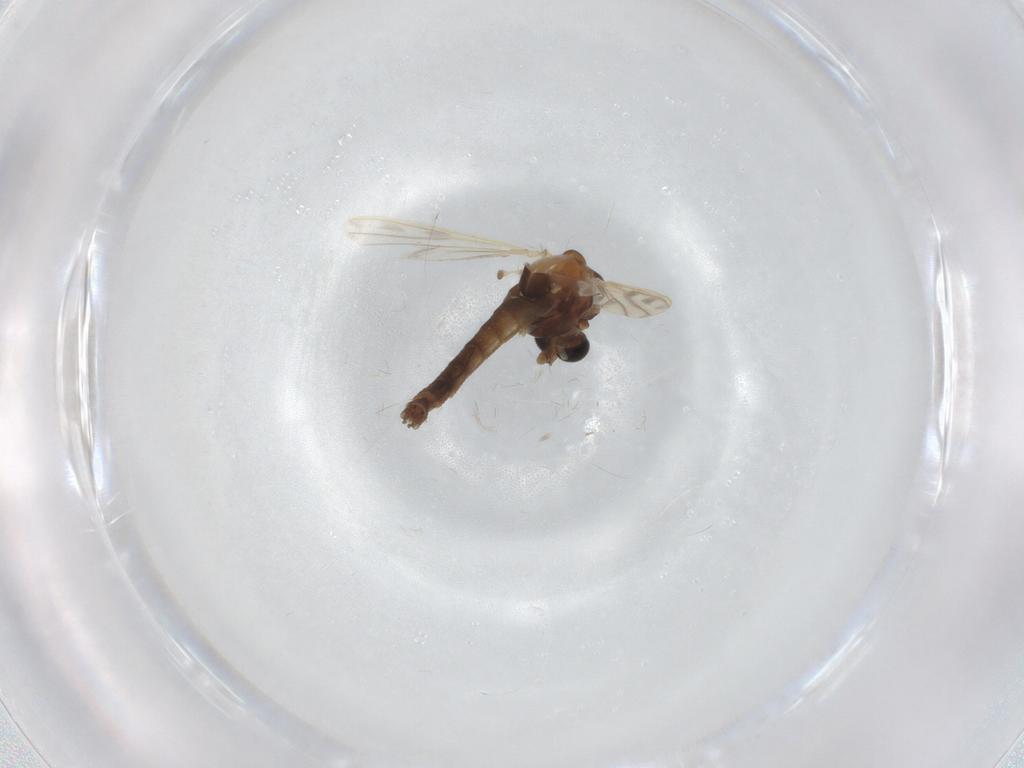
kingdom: Animalia
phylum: Arthropoda
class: Insecta
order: Diptera
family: Chironomidae
